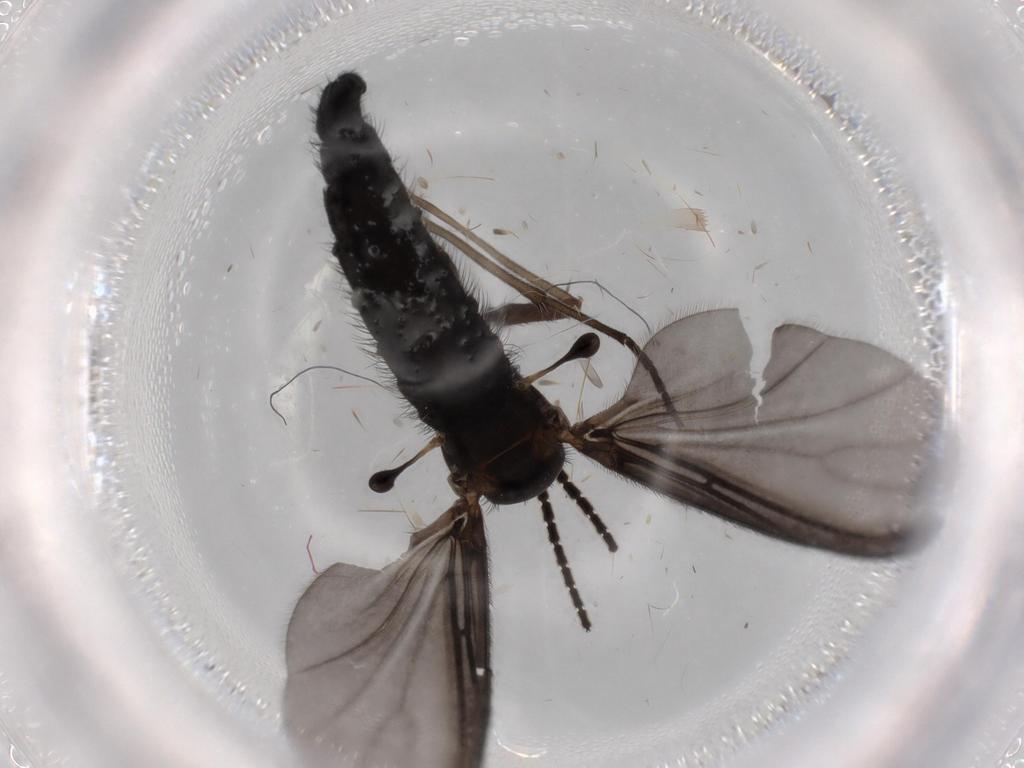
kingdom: Animalia
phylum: Arthropoda
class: Insecta
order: Diptera
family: Sciaridae
